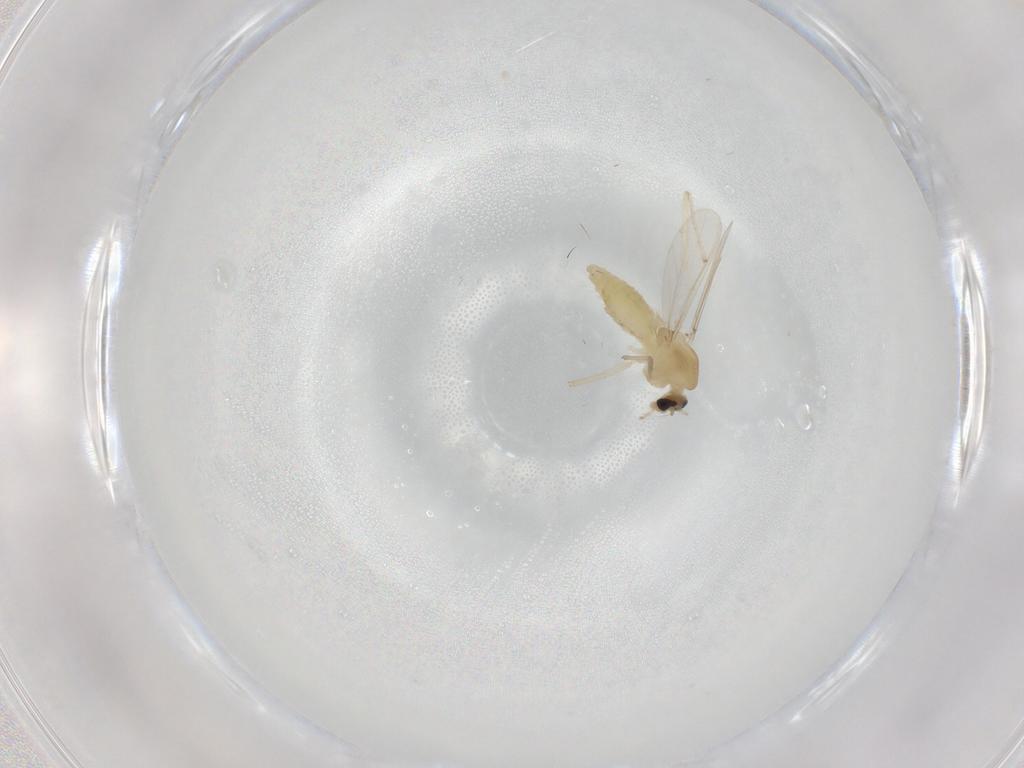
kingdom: Animalia
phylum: Arthropoda
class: Insecta
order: Diptera
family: Chironomidae
